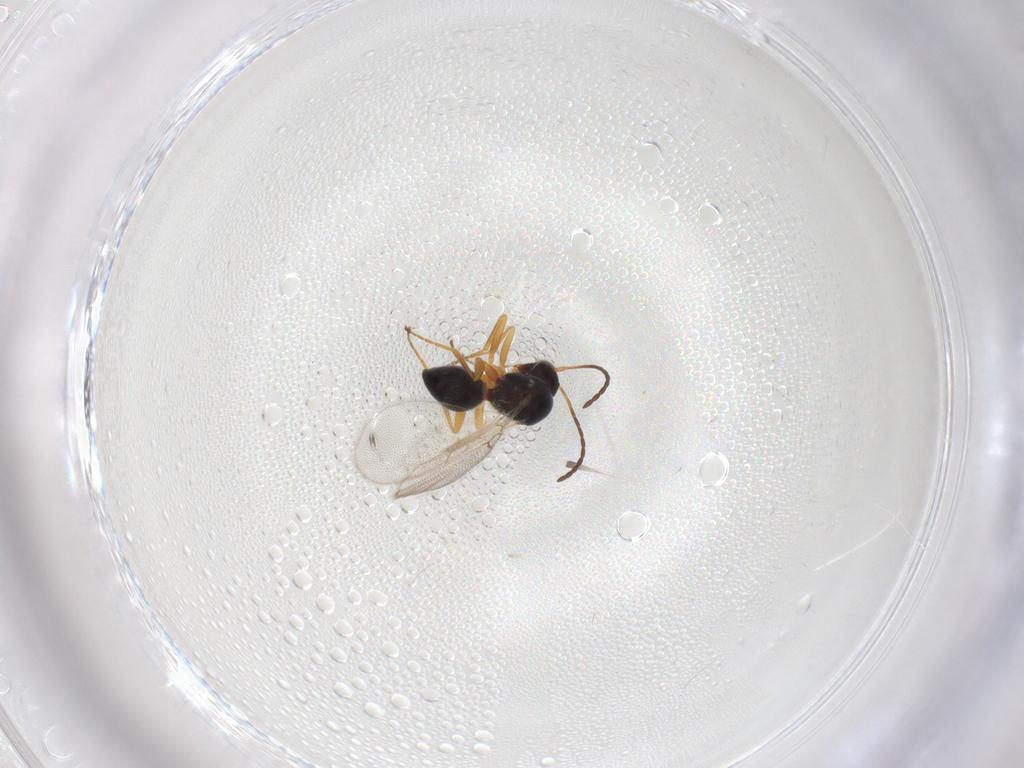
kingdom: Animalia
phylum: Arthropoda
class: Insecta
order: Hymenoptera
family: Figitidae
